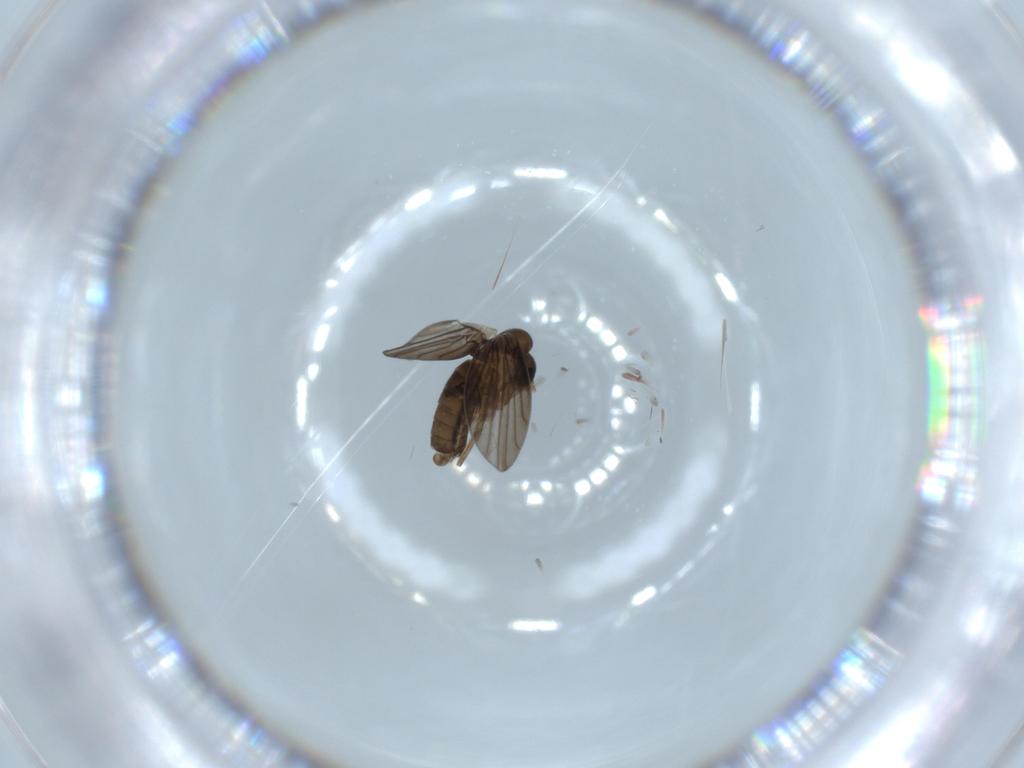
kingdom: Animalia
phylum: Arthropoda
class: Insecta
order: Diptera
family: Psychodidae
